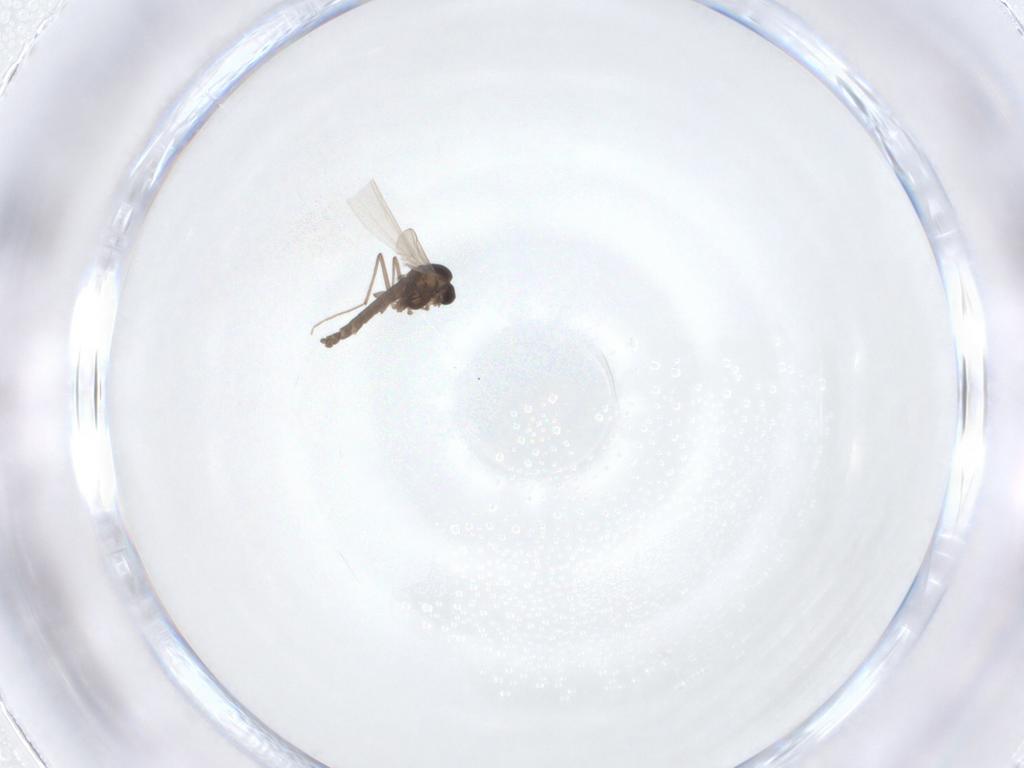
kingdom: Animalia
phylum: Arthropoda
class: Insecta
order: Diptera
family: Chironomidae
